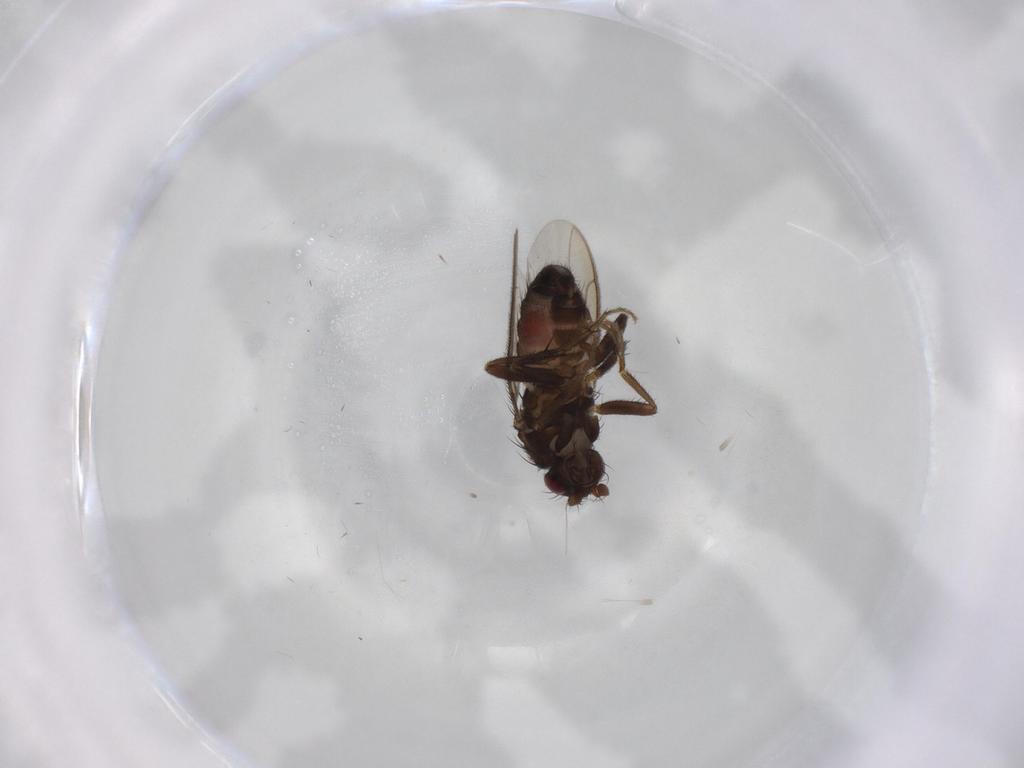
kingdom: Animalia
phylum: Arthropoda
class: Insecta
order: Diptera
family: Sphaeroceridae
